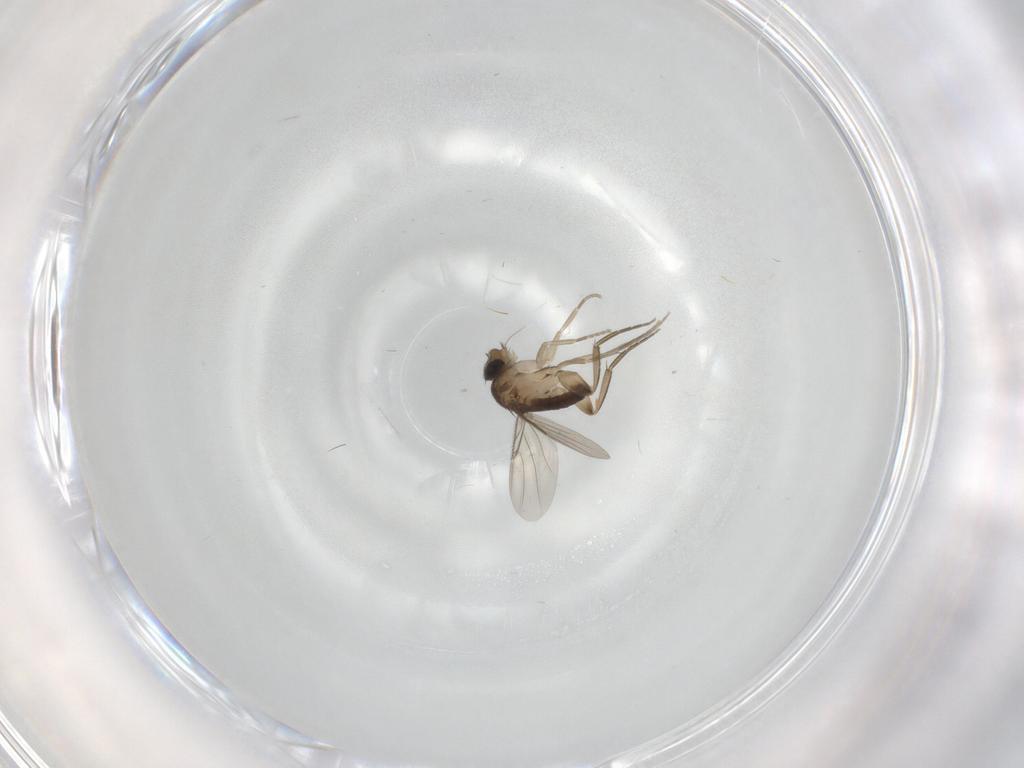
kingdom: Animalia
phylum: Arthropoda
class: Insecta
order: Diptera
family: Phoridae
